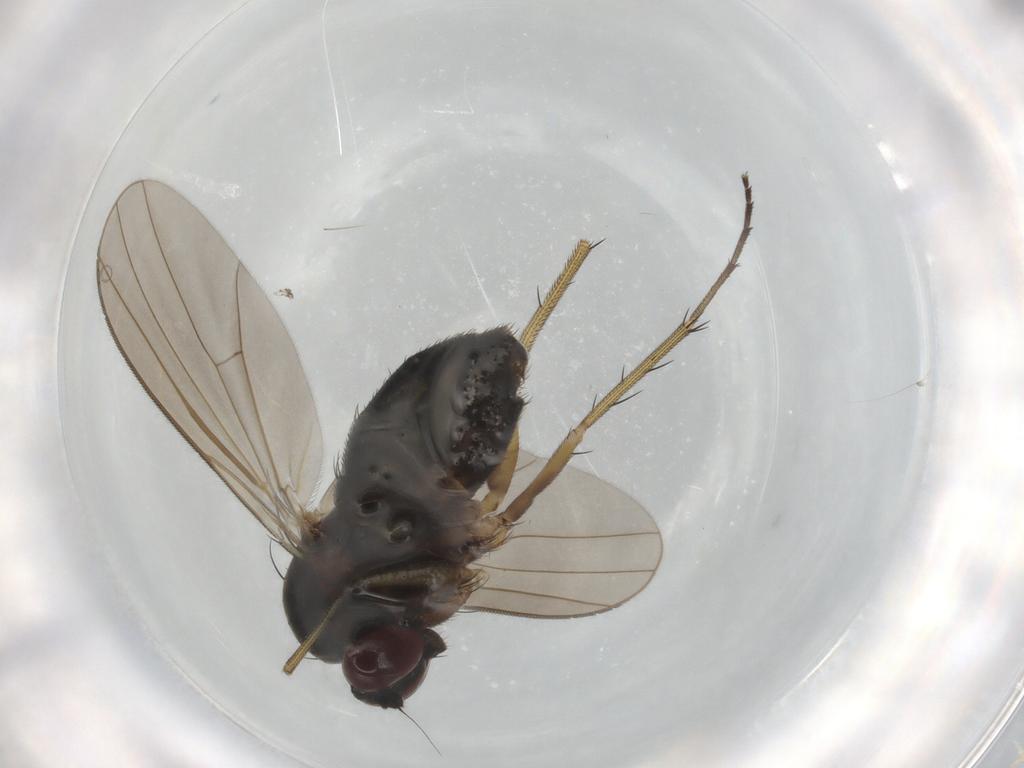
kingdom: Animalia
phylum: Arthropoda
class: Insecta
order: Diptera
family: Dolichopodidae
